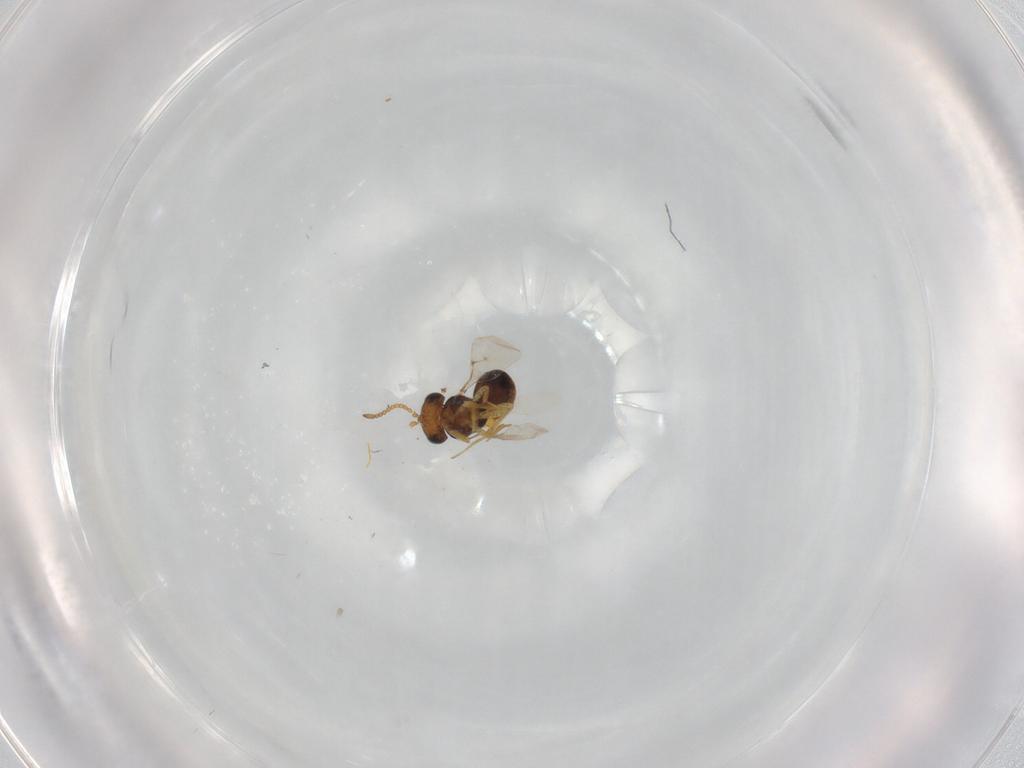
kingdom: Animalia
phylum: Arthropoda
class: Insecta
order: Hymenoptera
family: Scelionidae
